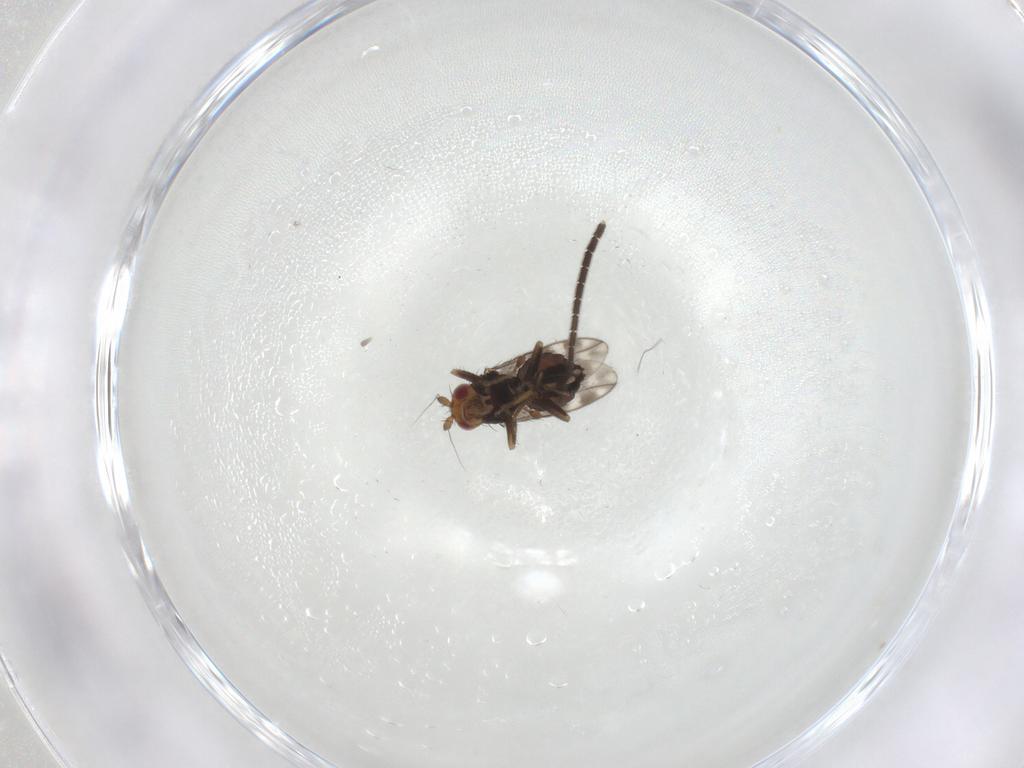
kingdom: Animalia
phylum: Arthropoda
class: Insecta
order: Diptera
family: Sphaeroceridae
